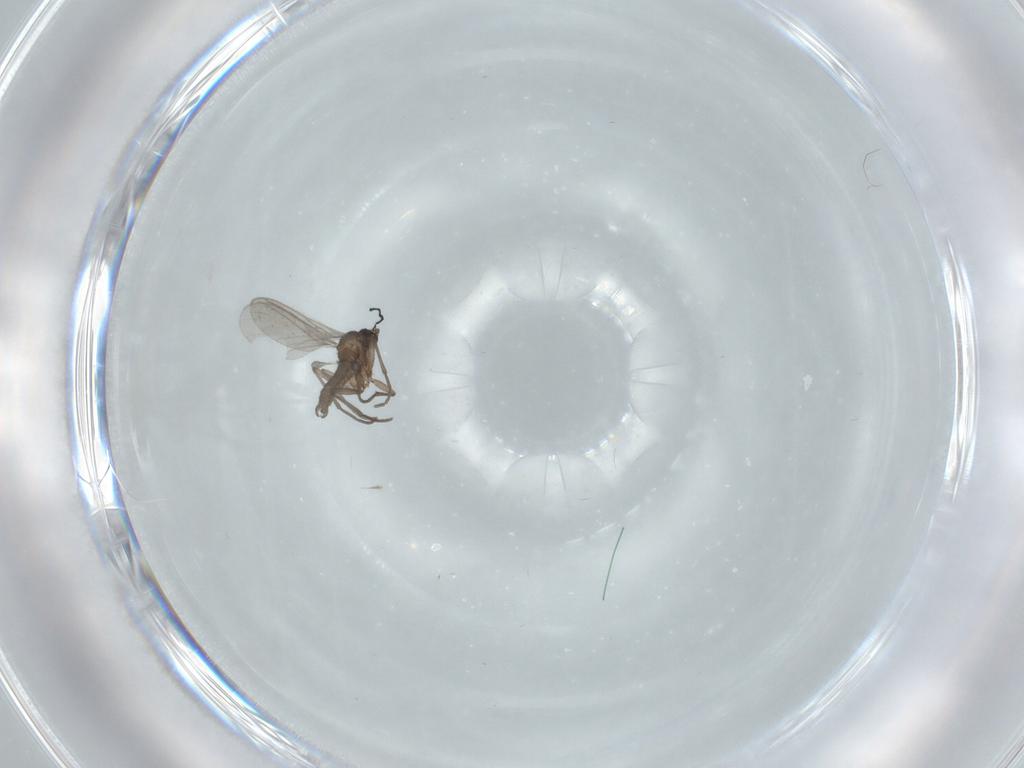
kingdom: Animalia
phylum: Arthropoda
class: Insecta
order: Diptera
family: Sciaridae
